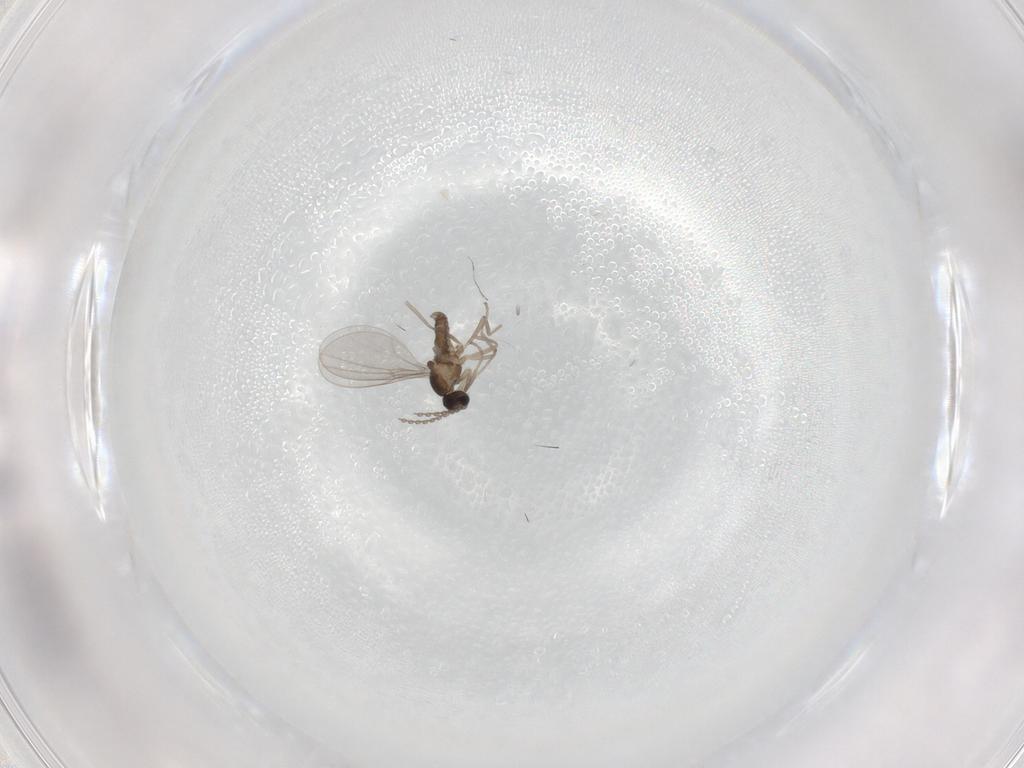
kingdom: Animalia
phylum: Arthropoda
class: Insecta
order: Diptera
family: Cecidomyiidae
